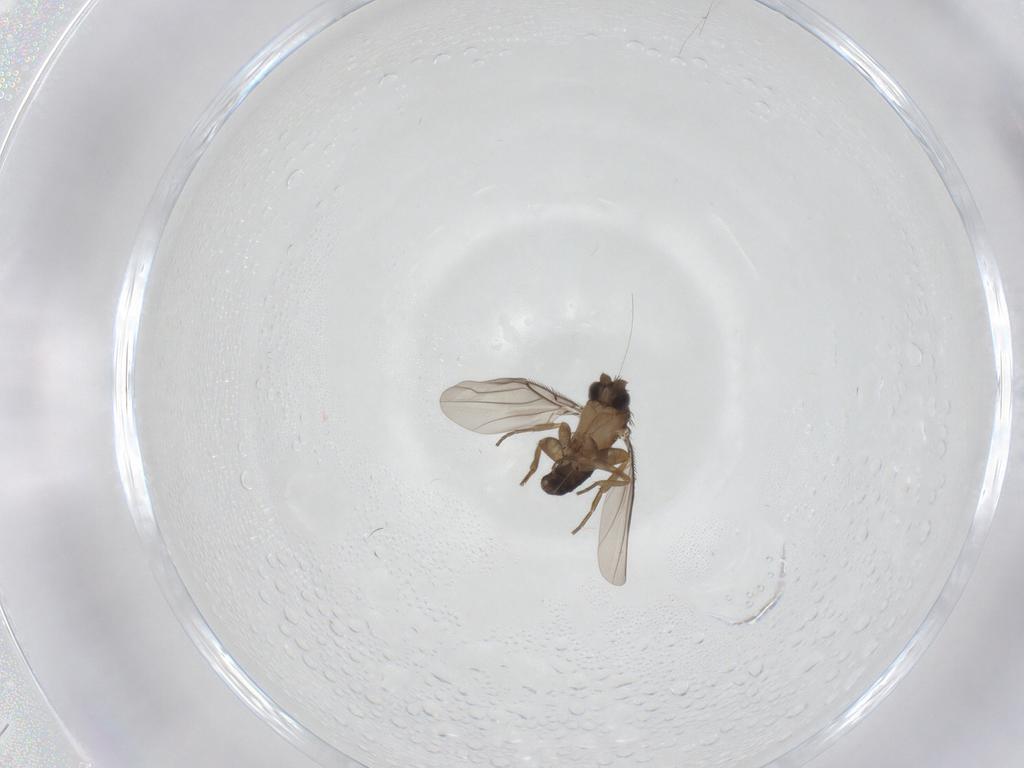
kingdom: Animalia
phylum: Arthropoda
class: Insecta
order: Diptera
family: Phoridae
